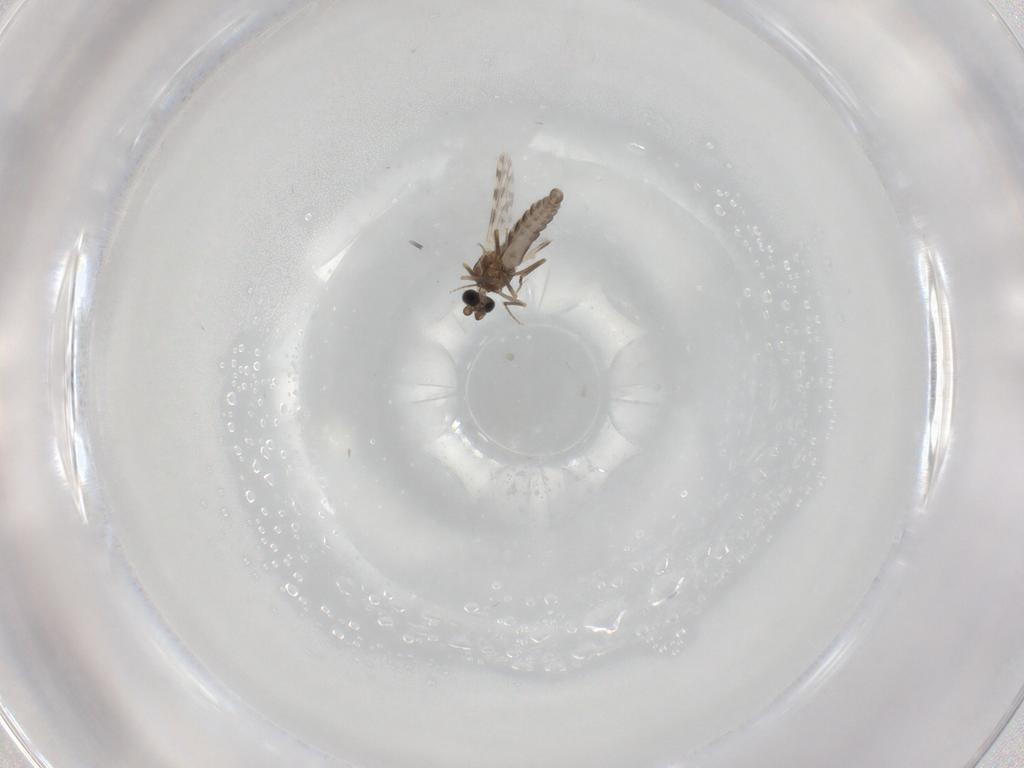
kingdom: Animalia
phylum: Arthropoda
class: Insecta
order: Diptera
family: Ceratopogonidae
